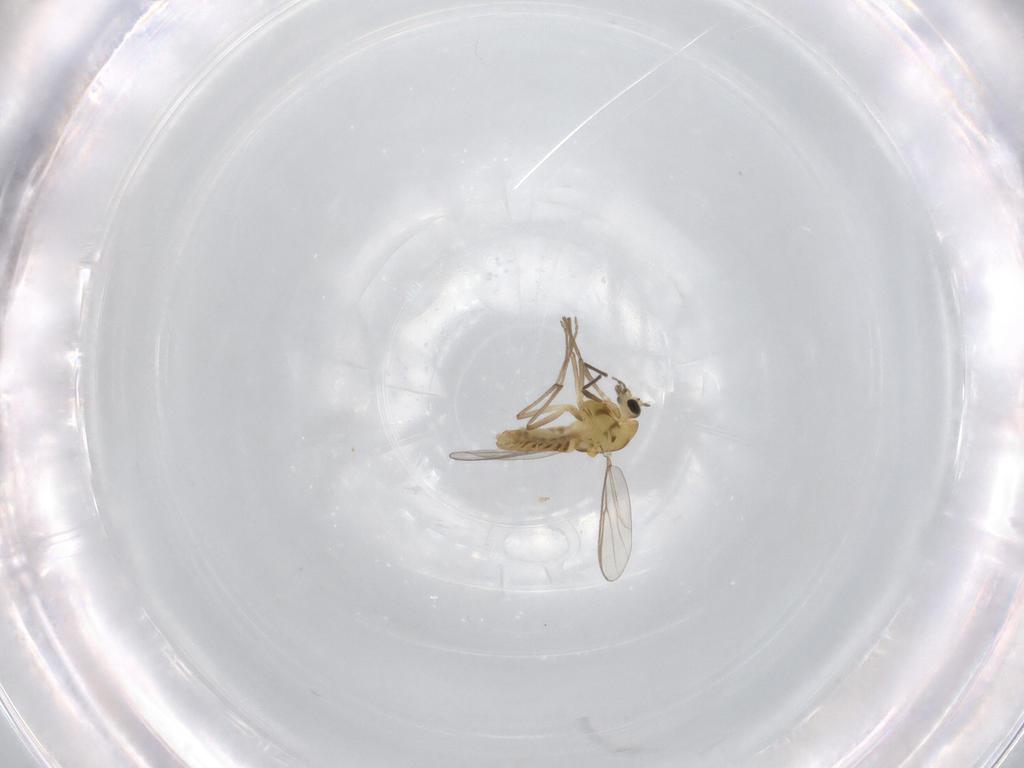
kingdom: Animalia
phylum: Arthropoda
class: Insecta
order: Diptera
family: Chironomidae
